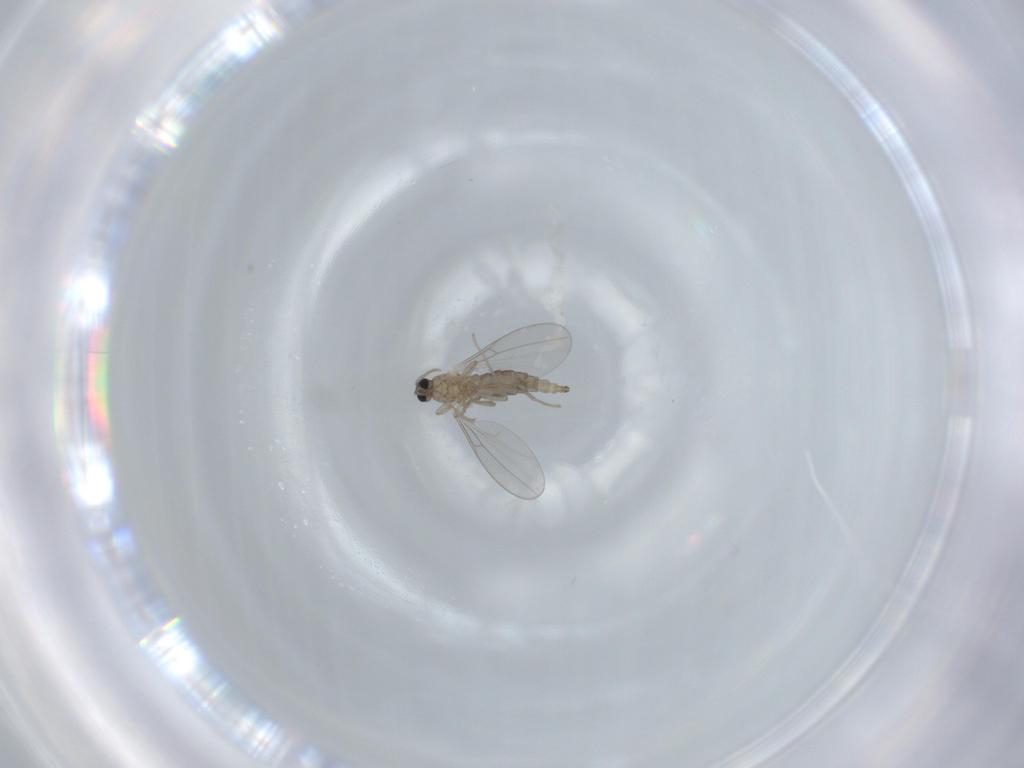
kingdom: Animalia
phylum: Arthropoda
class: Insecta
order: Diptera
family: Cecidomyiidae
